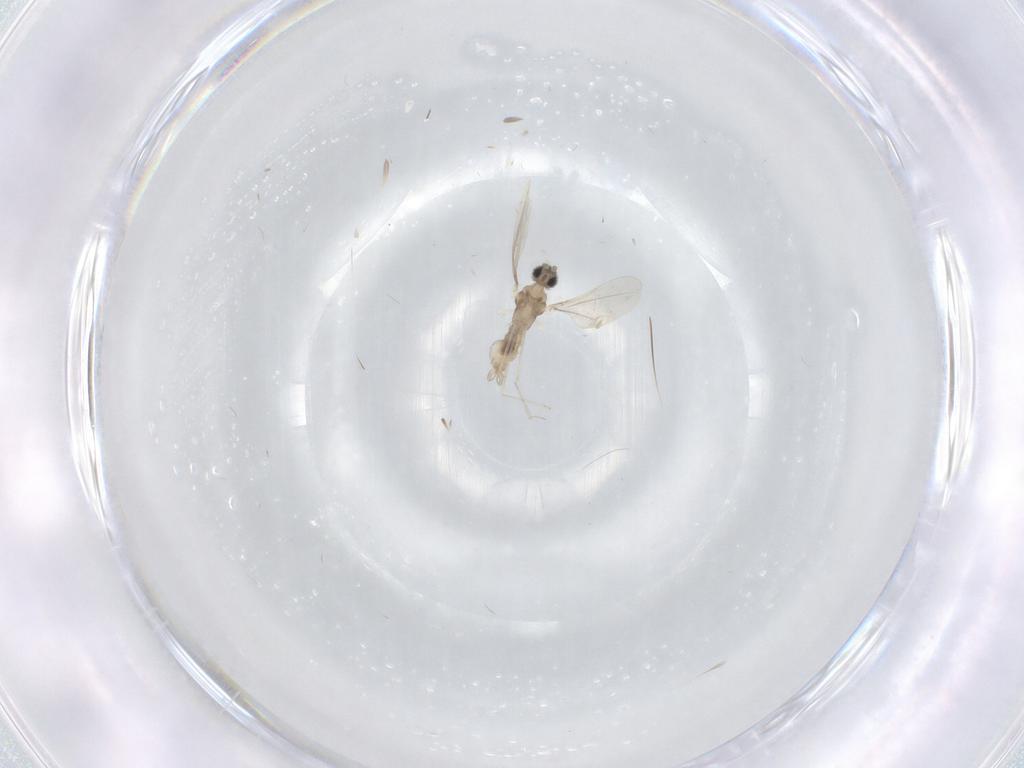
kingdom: Animalia
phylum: Arthropoda
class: Insecta
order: Diptera
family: Cecidomyiidae
